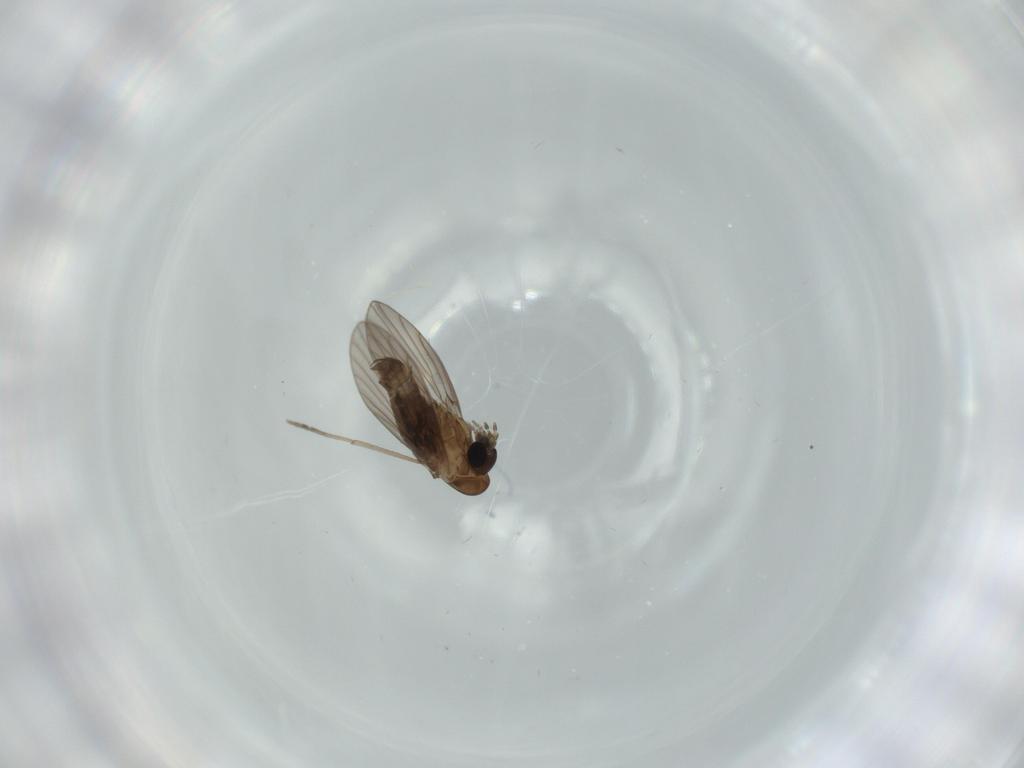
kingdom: Animalia
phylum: Arthropoda
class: Insecta
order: Diptera
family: Psychodidae
